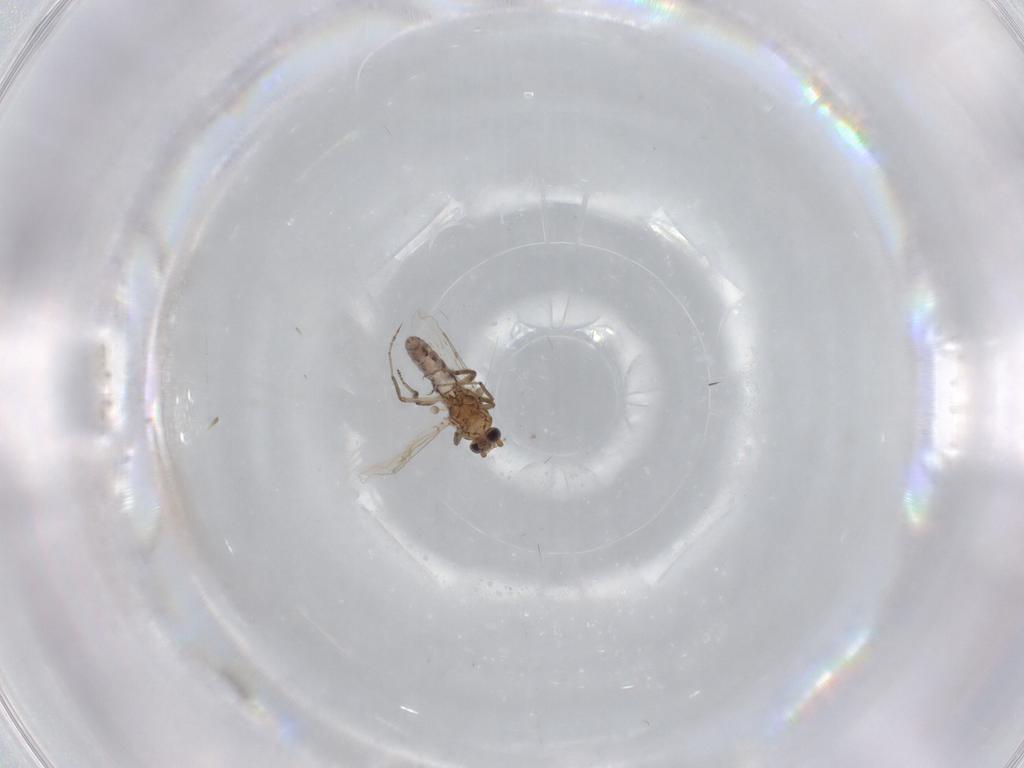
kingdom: Animalia
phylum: Arthropoda
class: Insecta
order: Diptera
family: Ceratopogonidae
